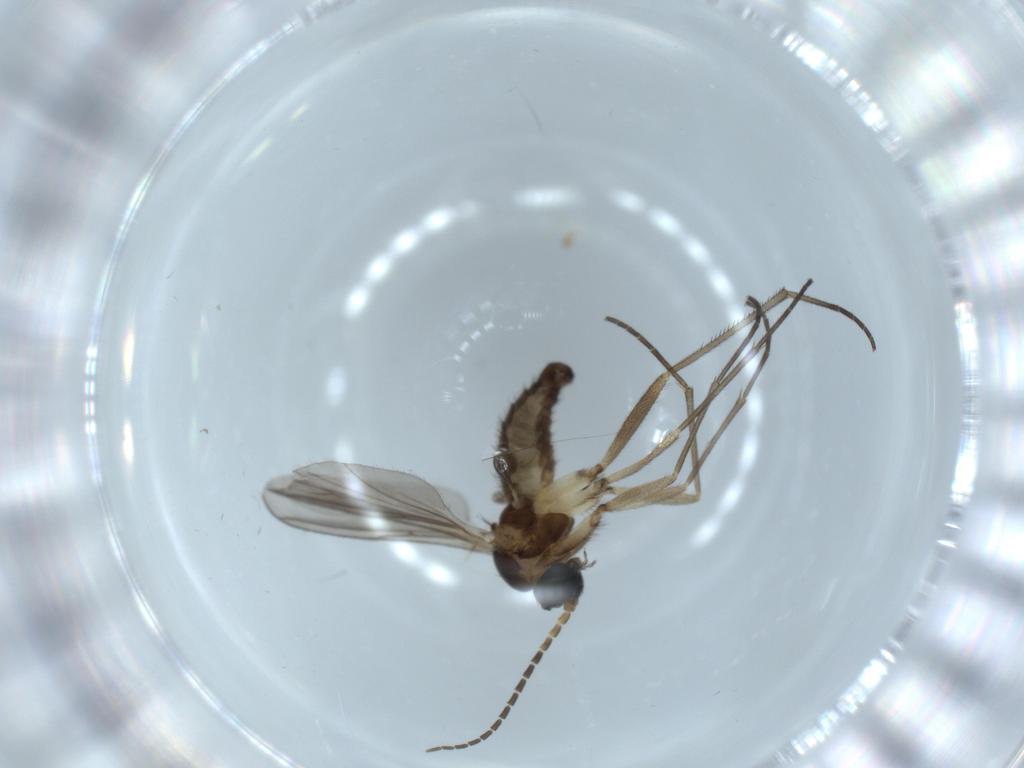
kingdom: Animalia
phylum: Arthropoda
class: Insecta
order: Diptera
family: Sciaridae
